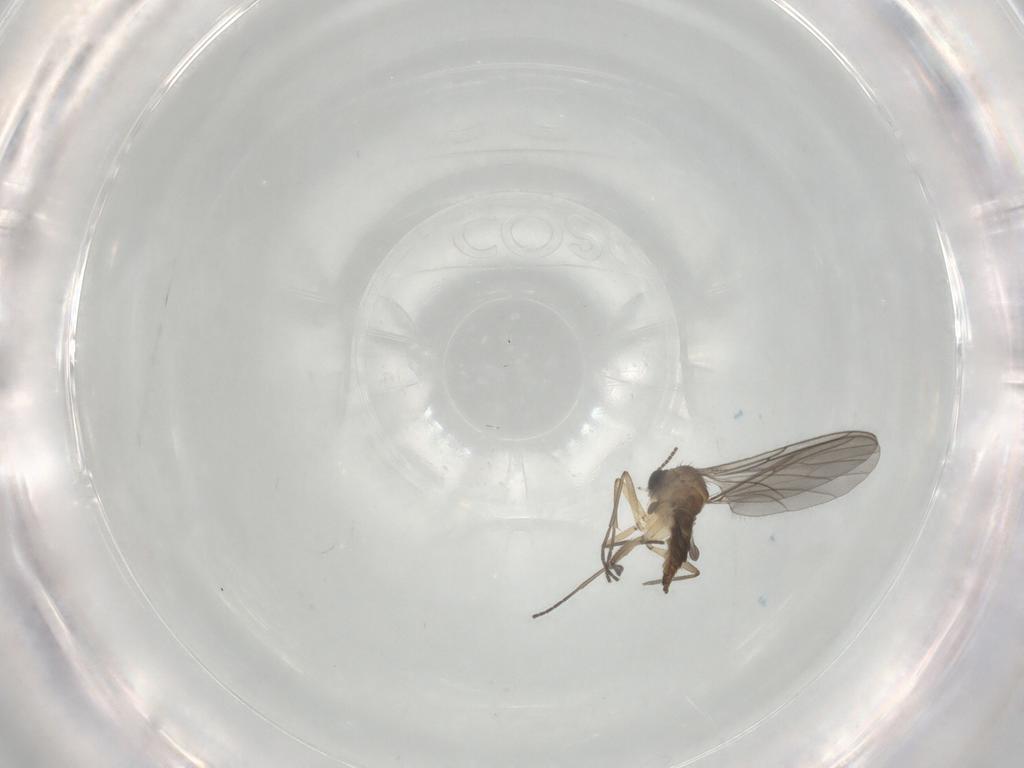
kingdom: Animalia
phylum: Arthropoda
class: Insecta
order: Diptera
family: Sciaridae
